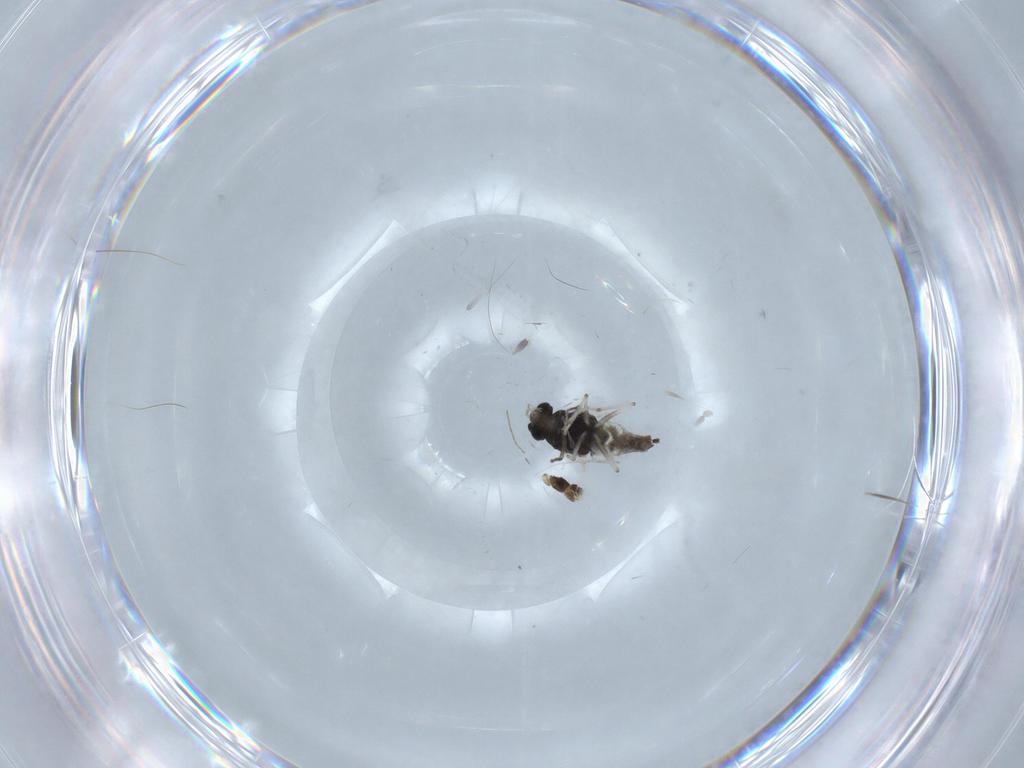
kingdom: Animalia
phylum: Arthropoda
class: Insecta
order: Diptera
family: Chironomidae
